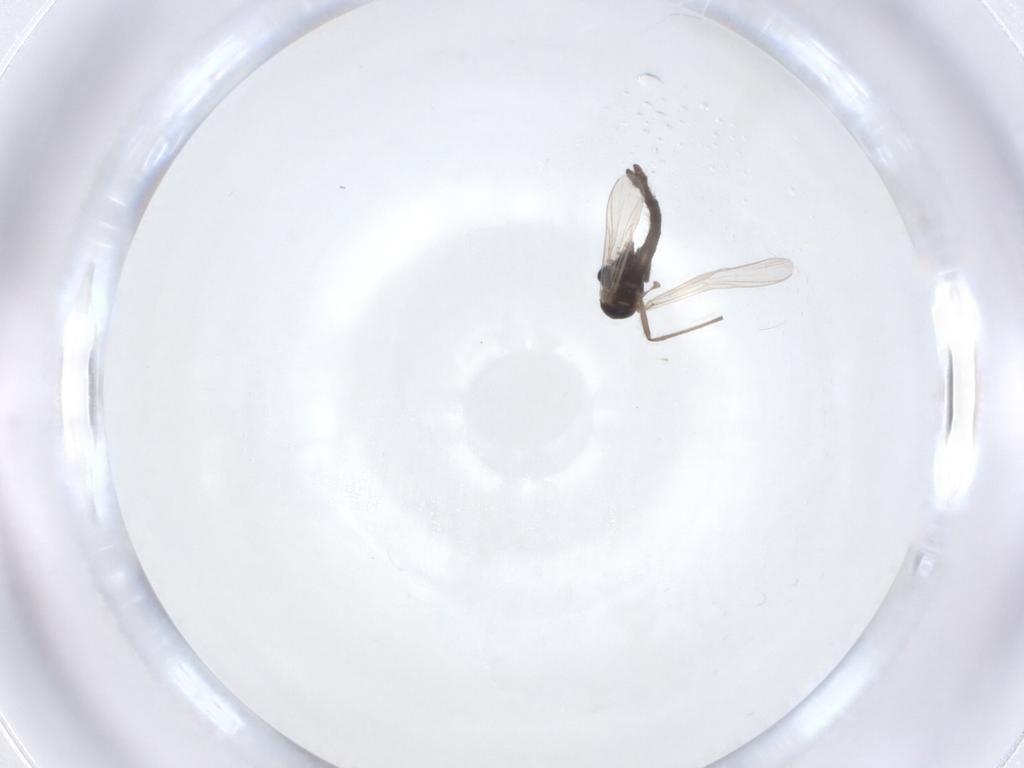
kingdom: Animalia
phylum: Arthropoda
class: Insecta
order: Diptera
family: Chironomidae
